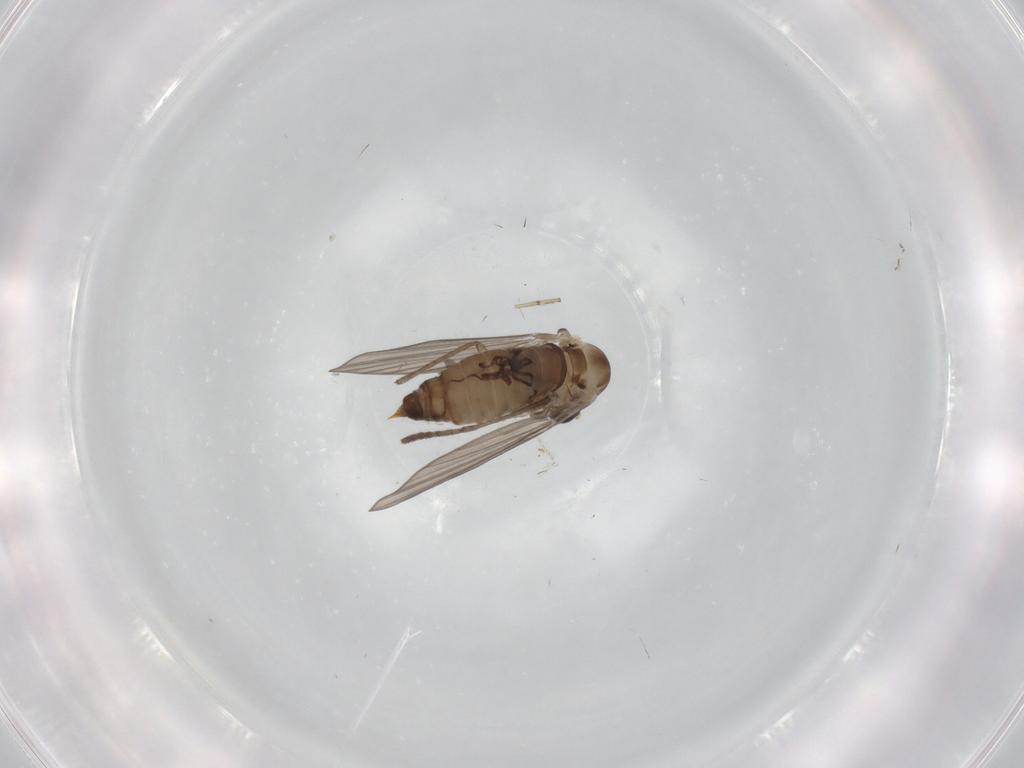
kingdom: Animalia
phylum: Arthropoda
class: Insecta
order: Diptera
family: Psychodidae
